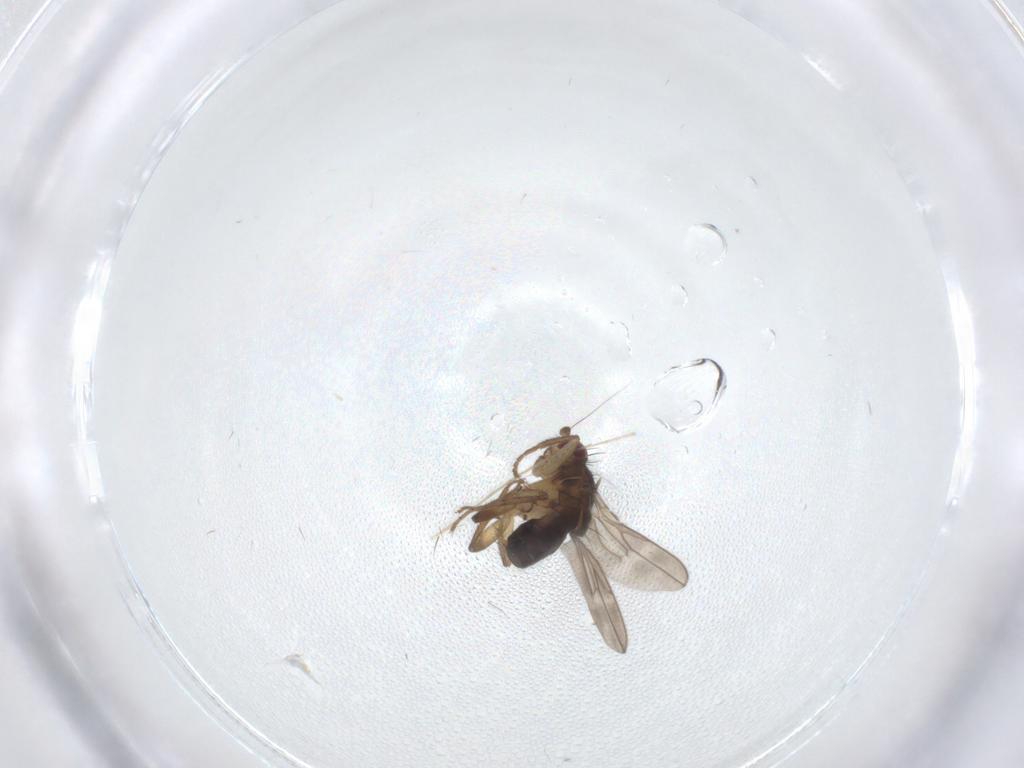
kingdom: Animalia
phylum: Arthropoda
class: Insecta
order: Diptera
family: Sphaeroceridae
